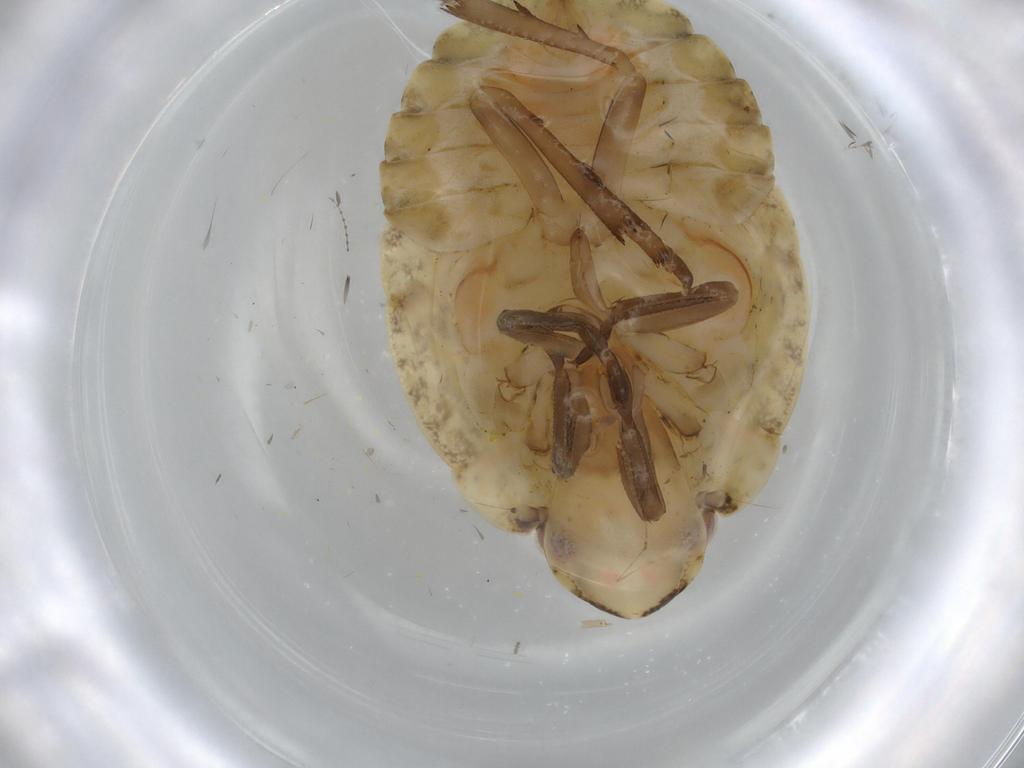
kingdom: Animalia
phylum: Arthropoda
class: Insecta
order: Hemiptera
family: Flatidae
